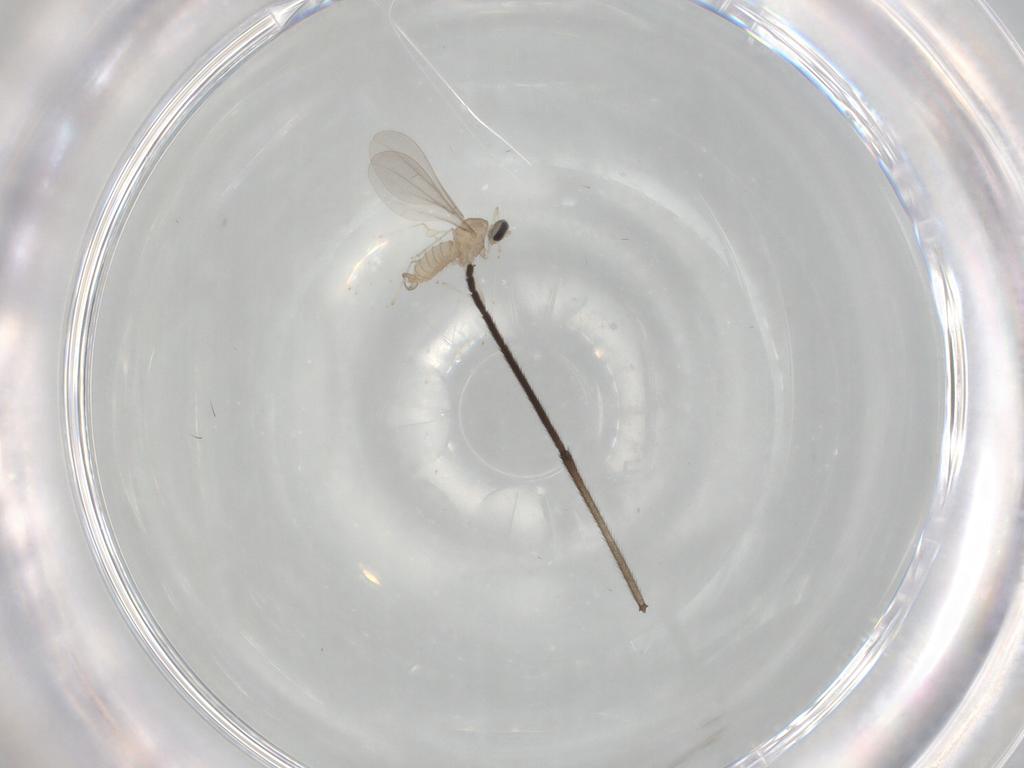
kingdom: Animalia
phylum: Arthropoda
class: Insecta
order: Diptera
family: Sciaridae
